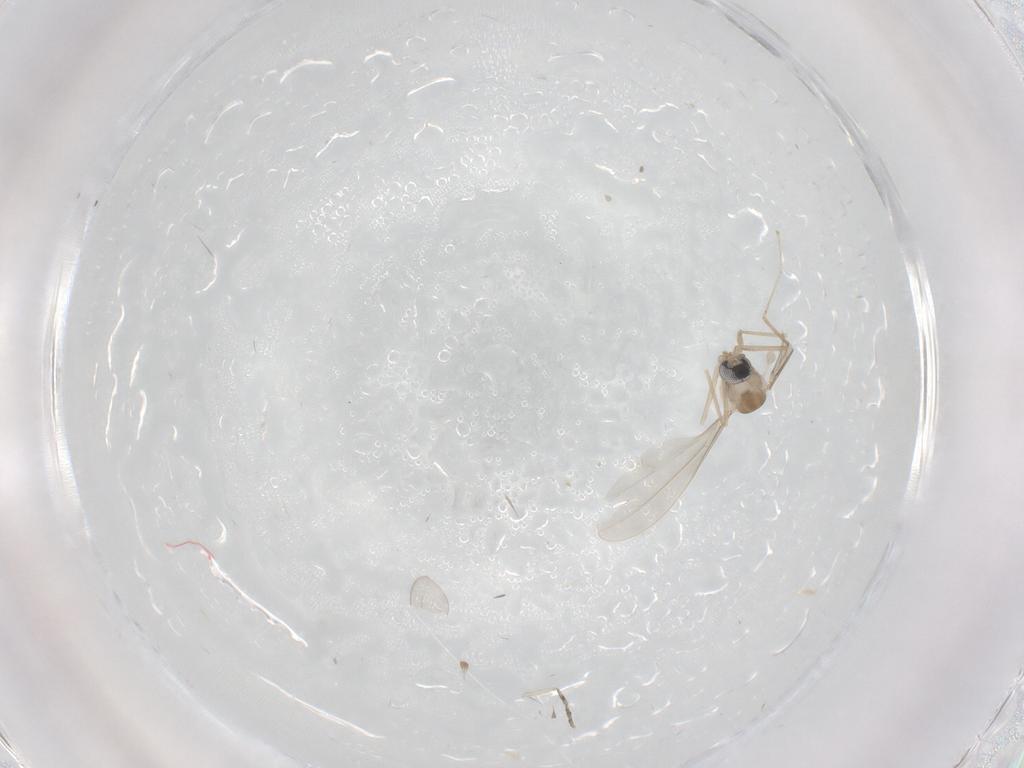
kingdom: Animalia
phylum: Arthropoda
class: Insecta
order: Diptera
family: Cecidomyiidae
